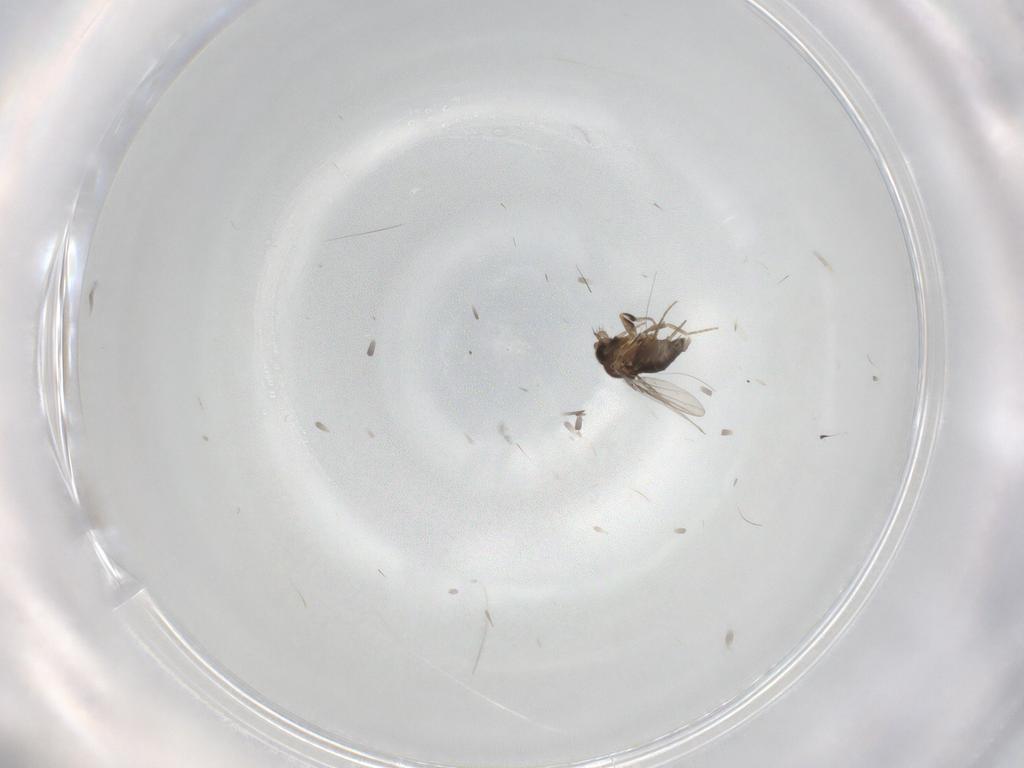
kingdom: Animalia
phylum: Arthropoda
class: Insecta
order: Diptera
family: Phoridae
